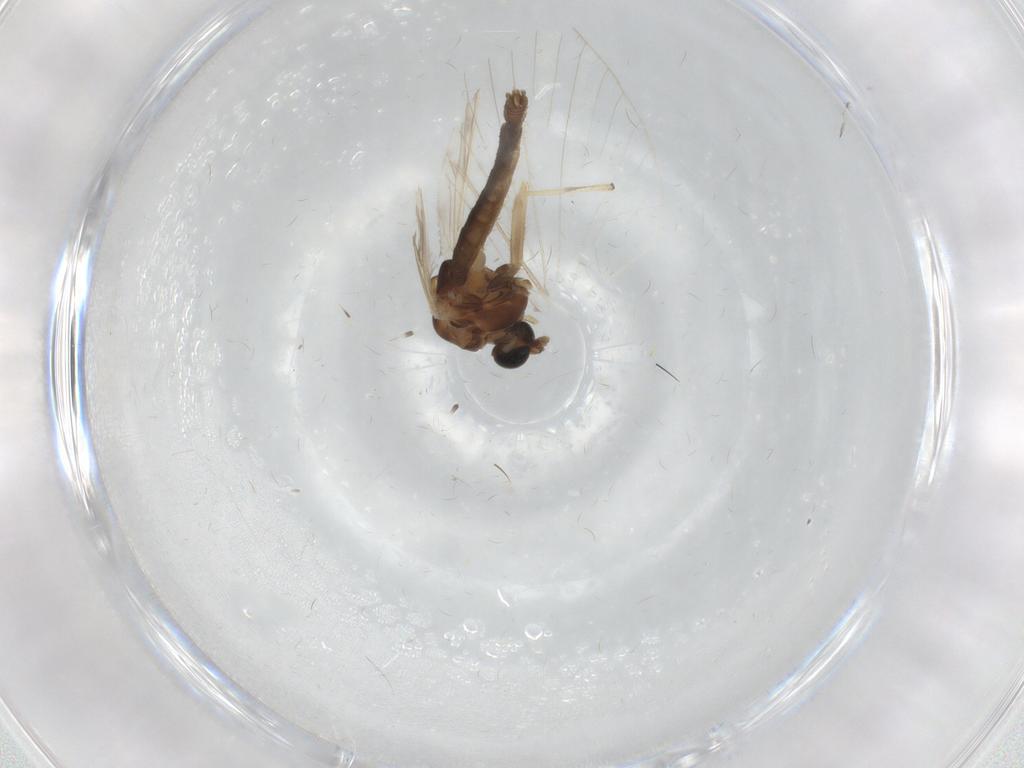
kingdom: Animalia
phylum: Arthropoda
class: Insecta
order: Diptera
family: Chironomidae
